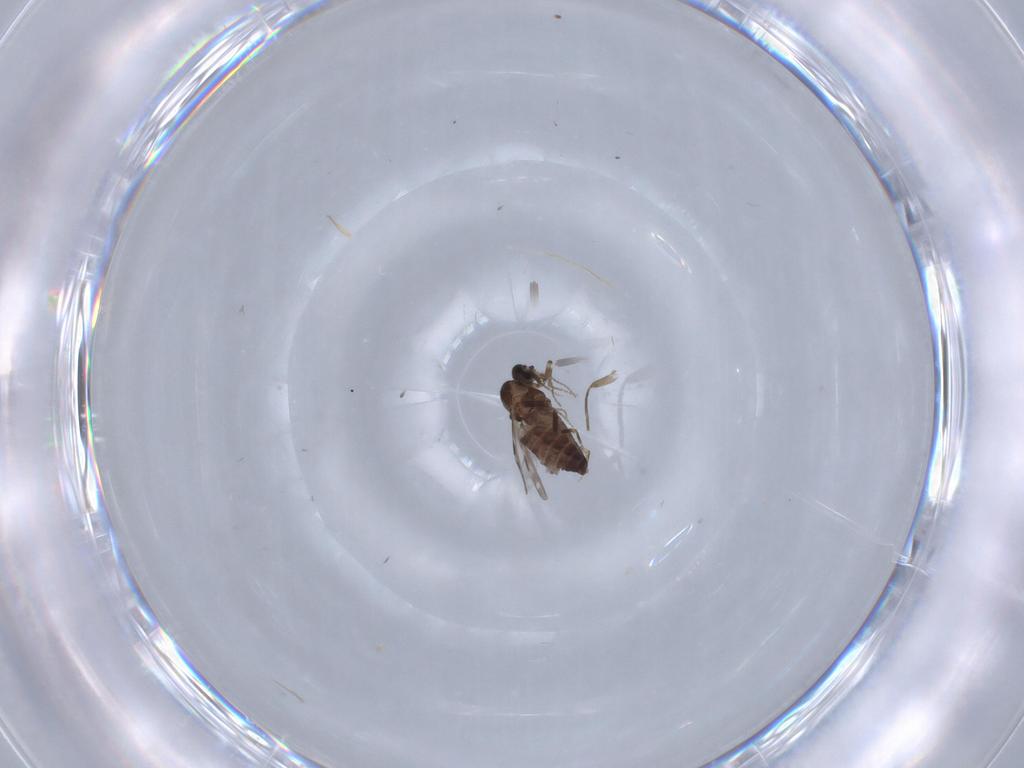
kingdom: Animalia
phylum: Arthropoda
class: Insecta
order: Diptera
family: Ceratopogonidae
